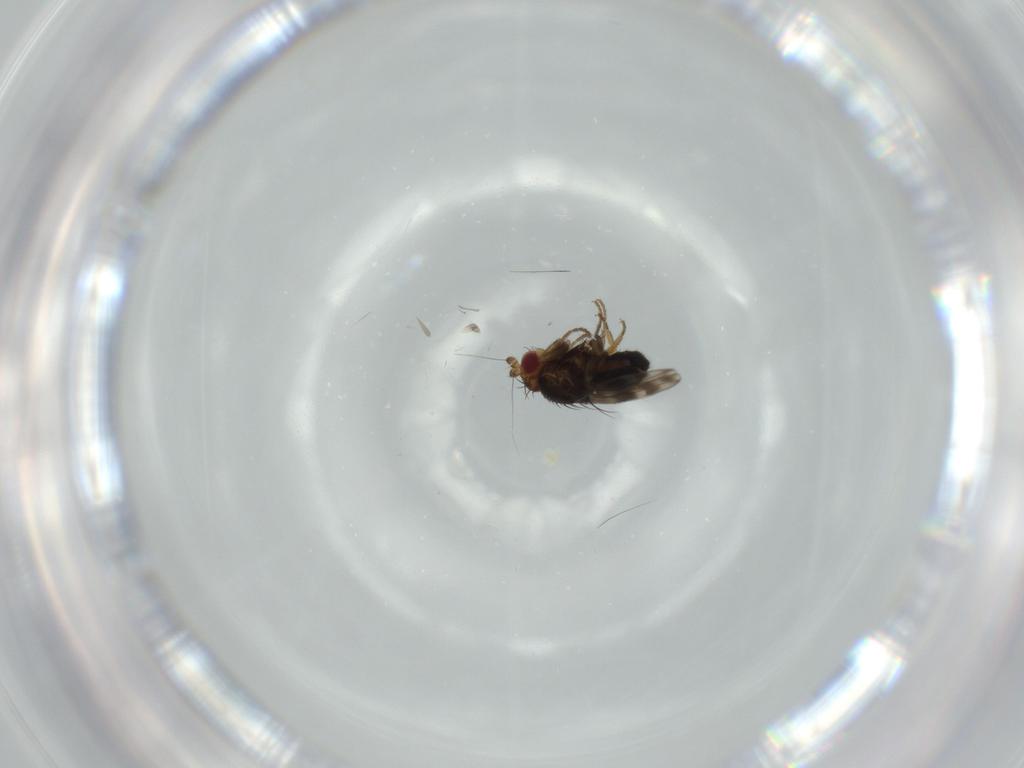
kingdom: Animalia
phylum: Arthropoda
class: Insecta
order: Diptera
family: Sphaeroceridae
